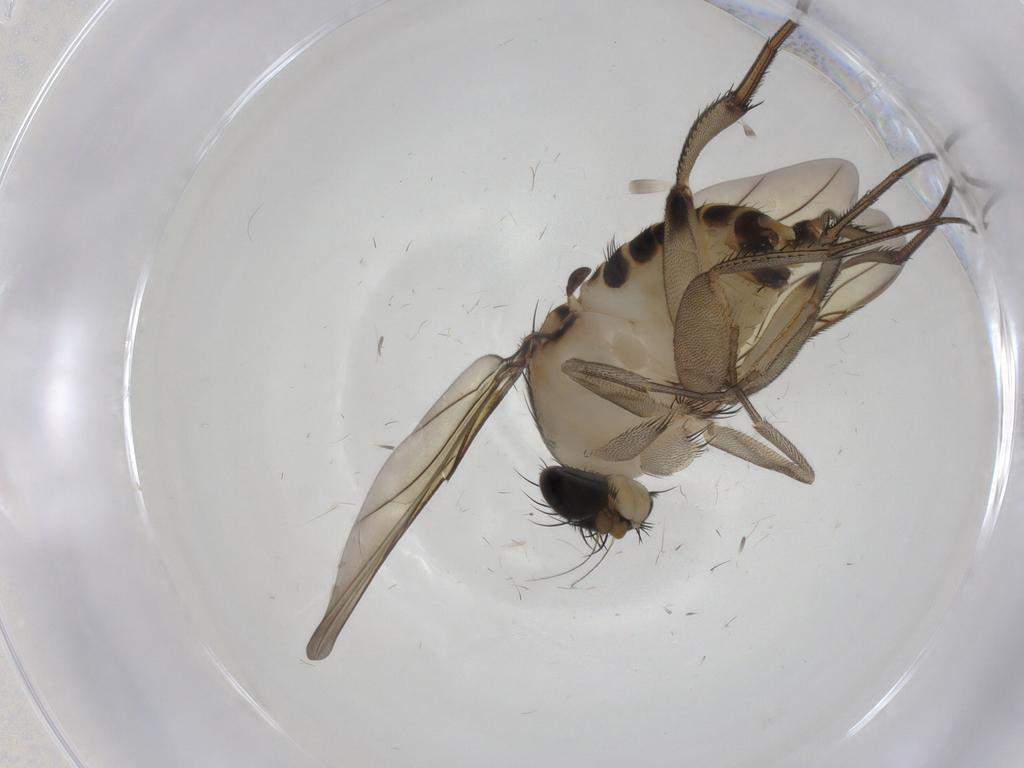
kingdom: Animalia
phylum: Arthropoda
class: Insecta
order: Diptera
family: Phoridae
